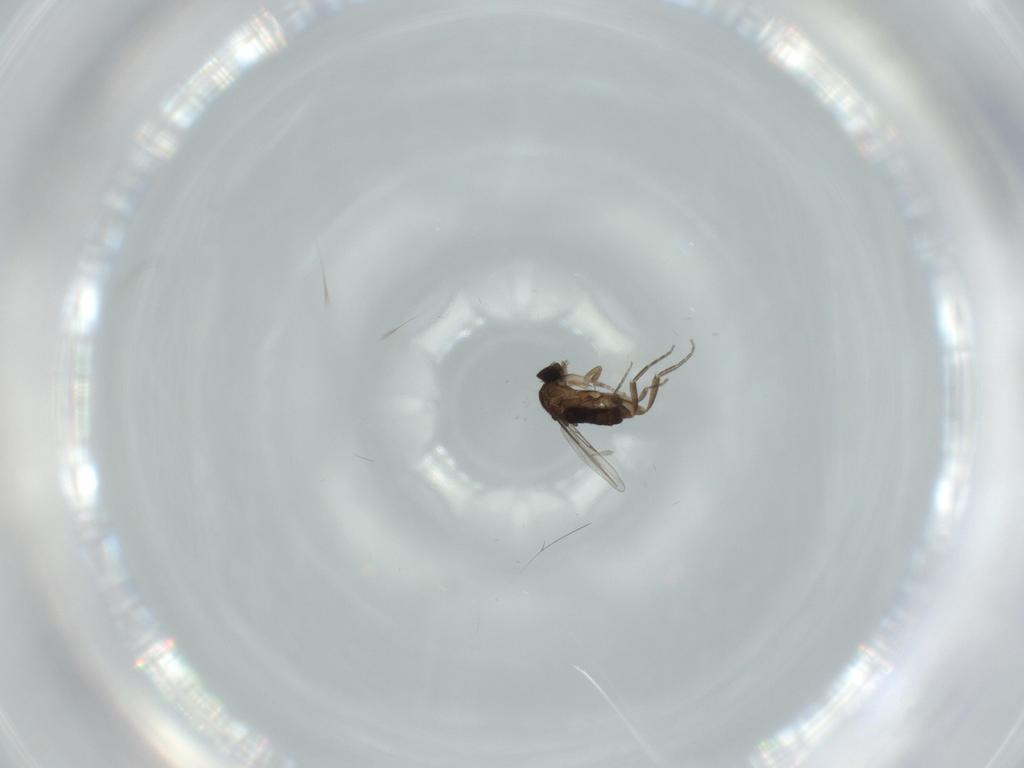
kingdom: Animalia
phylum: Arthropoda
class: Insecta
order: Diptera
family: Phoridae
